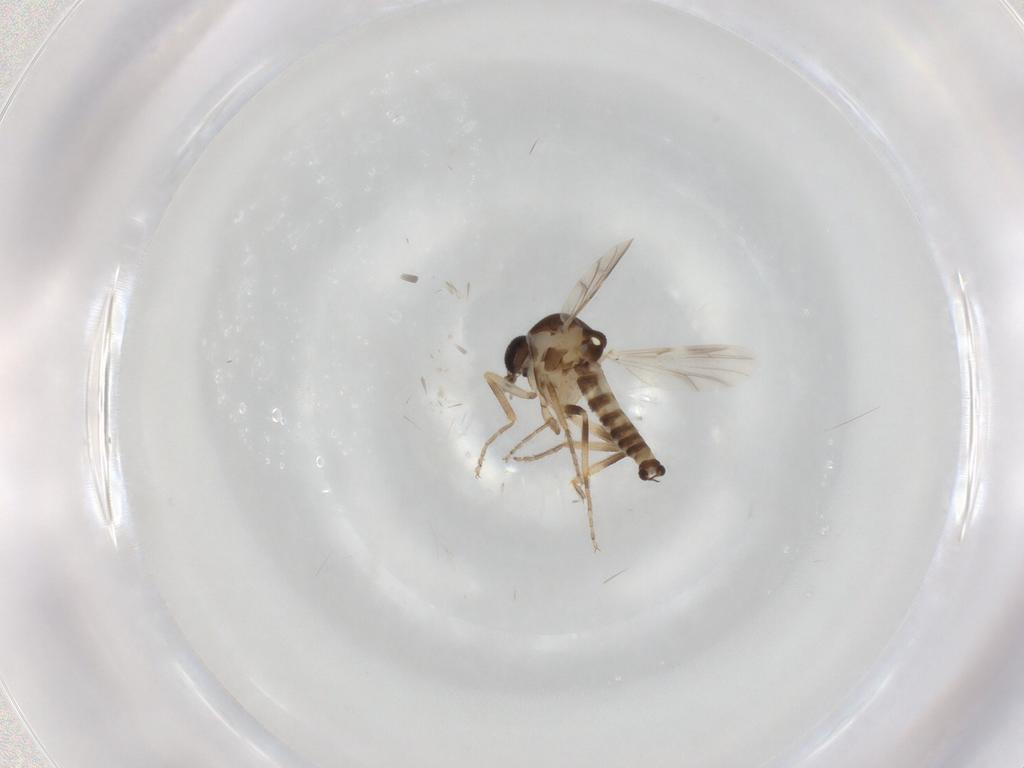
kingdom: Animalia
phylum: Arthropoda
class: Insecta
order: Diptera
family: Ceratopogonidae
